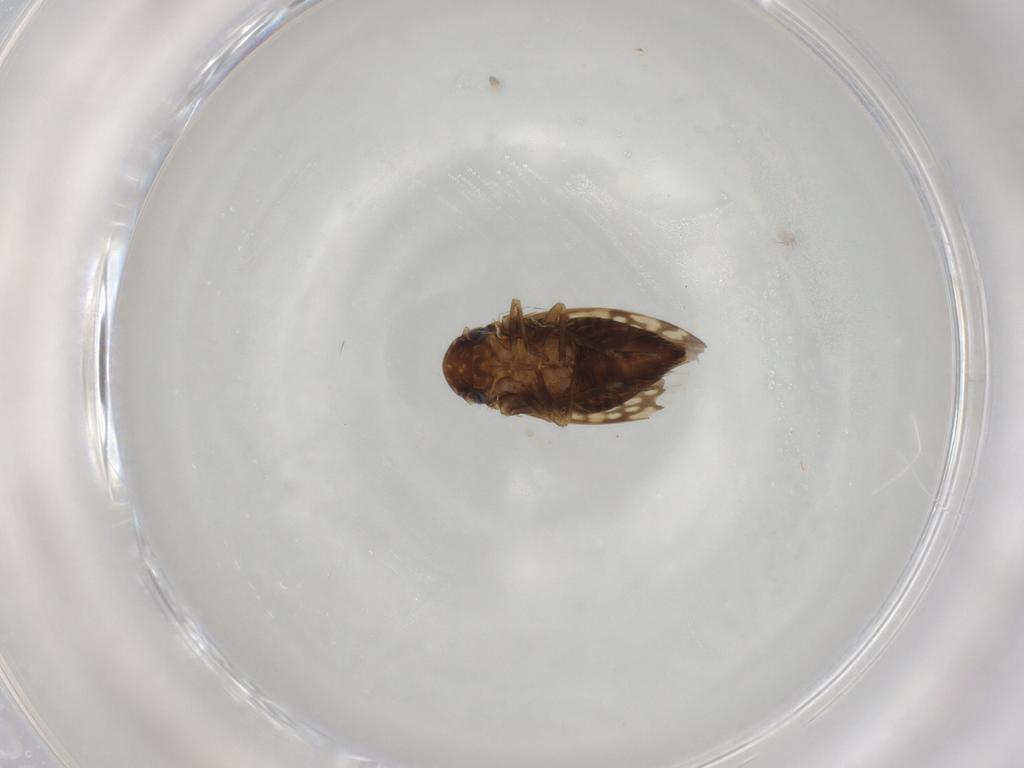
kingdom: Animalia
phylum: Arthropoda
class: Insecta
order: Hemiptera
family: Cicadellidae
